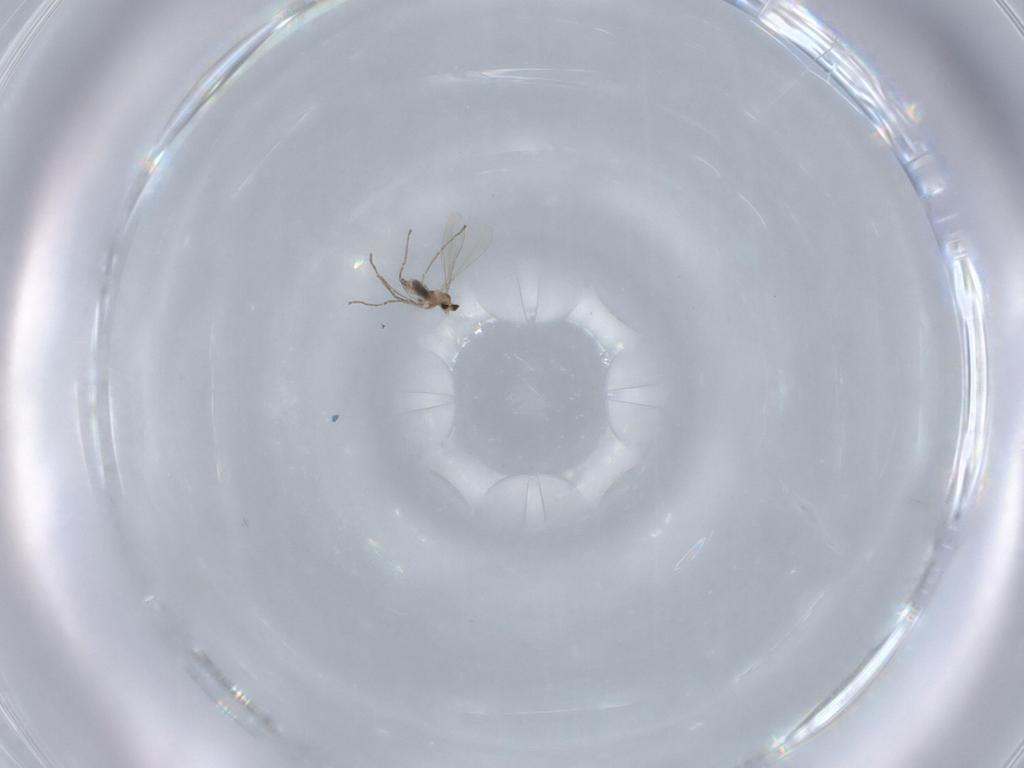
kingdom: Animalia
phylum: Arthropoda
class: Insecta
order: Diptera
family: Cecidomyiidae
